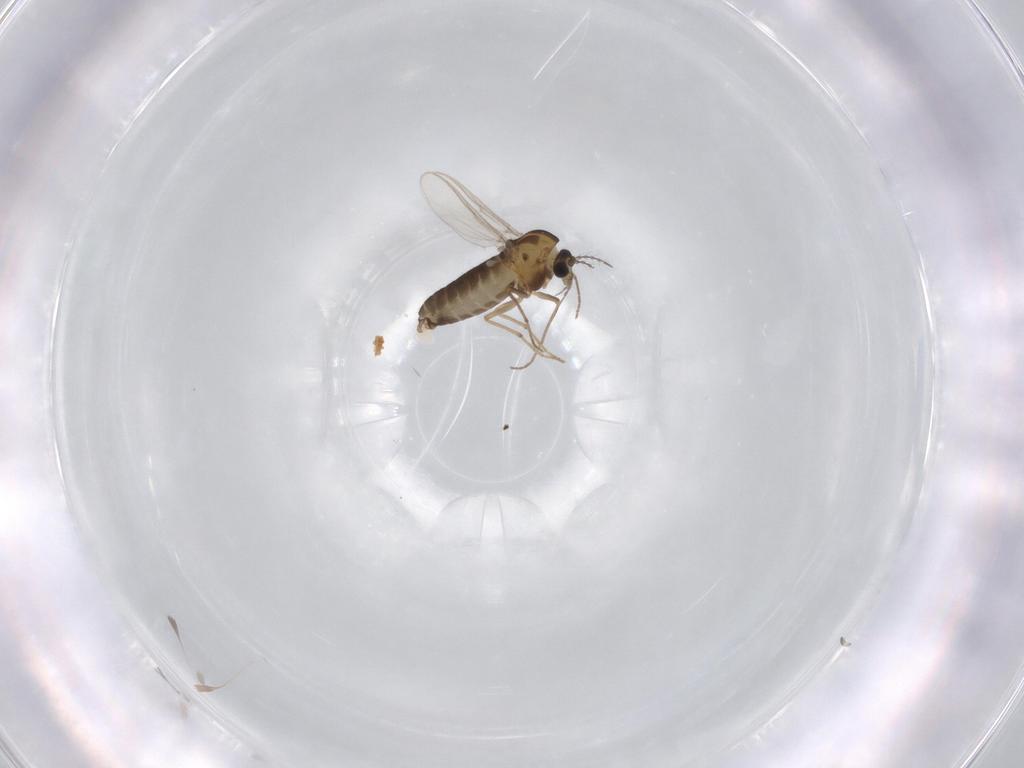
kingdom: Animalia
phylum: Arthropoda
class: Insecta
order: Diptera
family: Chironomidae
